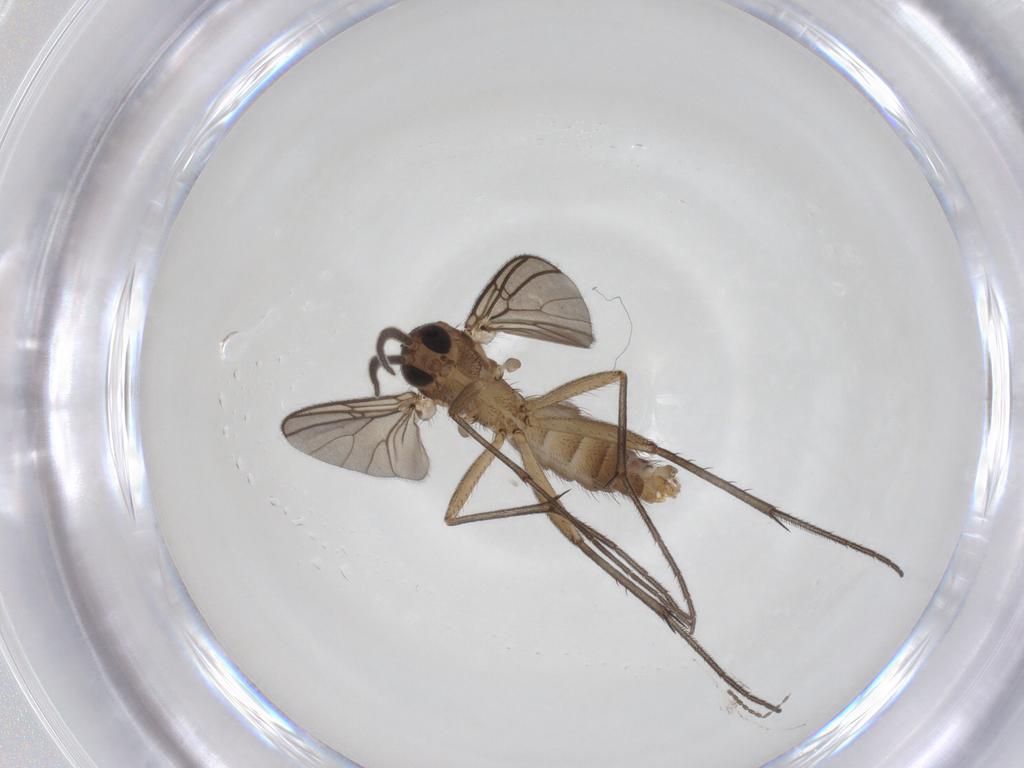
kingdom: Animalia
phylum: Arthropoda
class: Insecta
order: Diptera
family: Mycetophilidae
